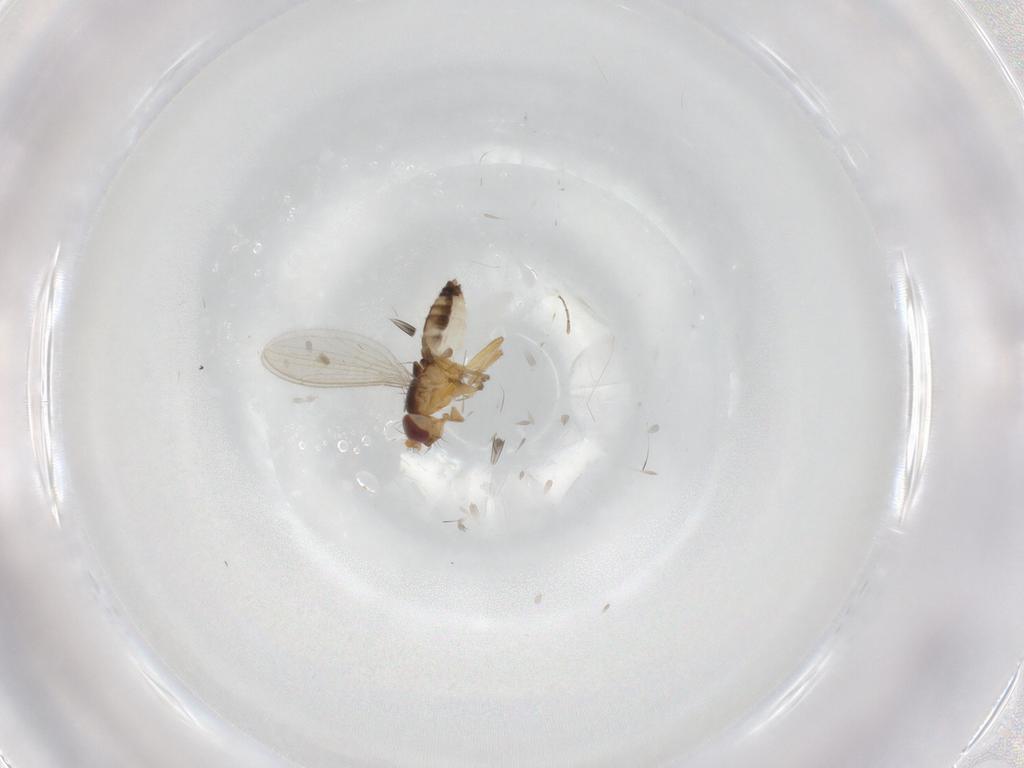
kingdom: Animalia
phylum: Arthropoda
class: Insecta
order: Diptera
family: Periscelididae
